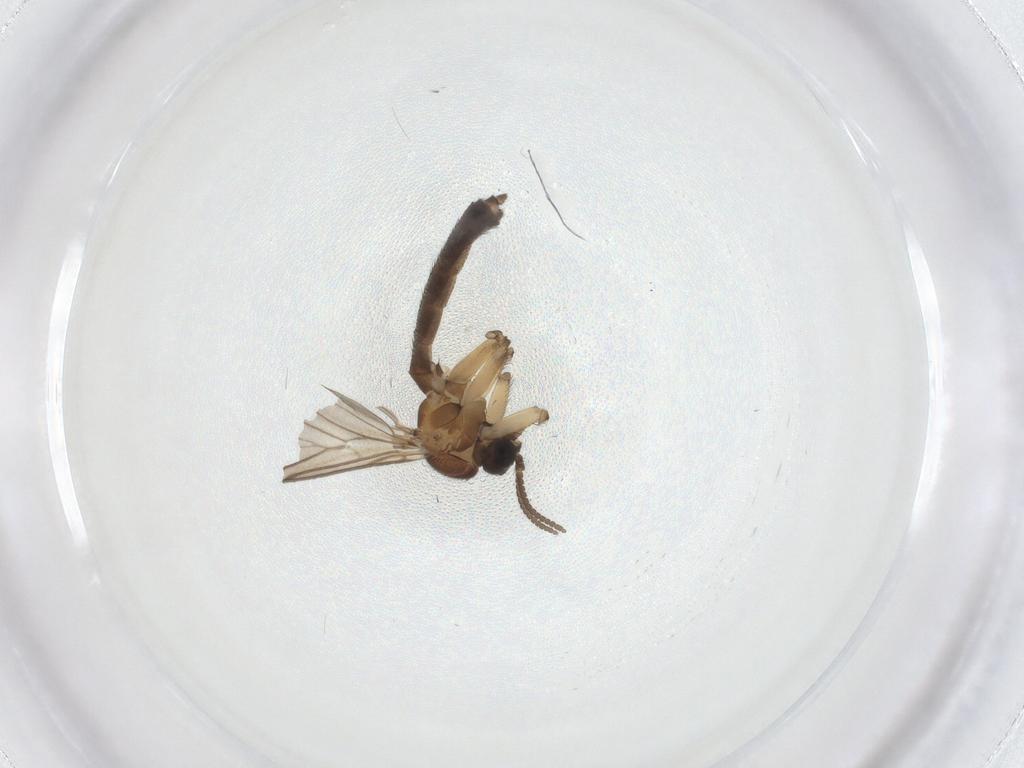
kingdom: Animalia
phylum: Arthropoda
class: Insecta
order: Diptera
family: Keroplatidae
